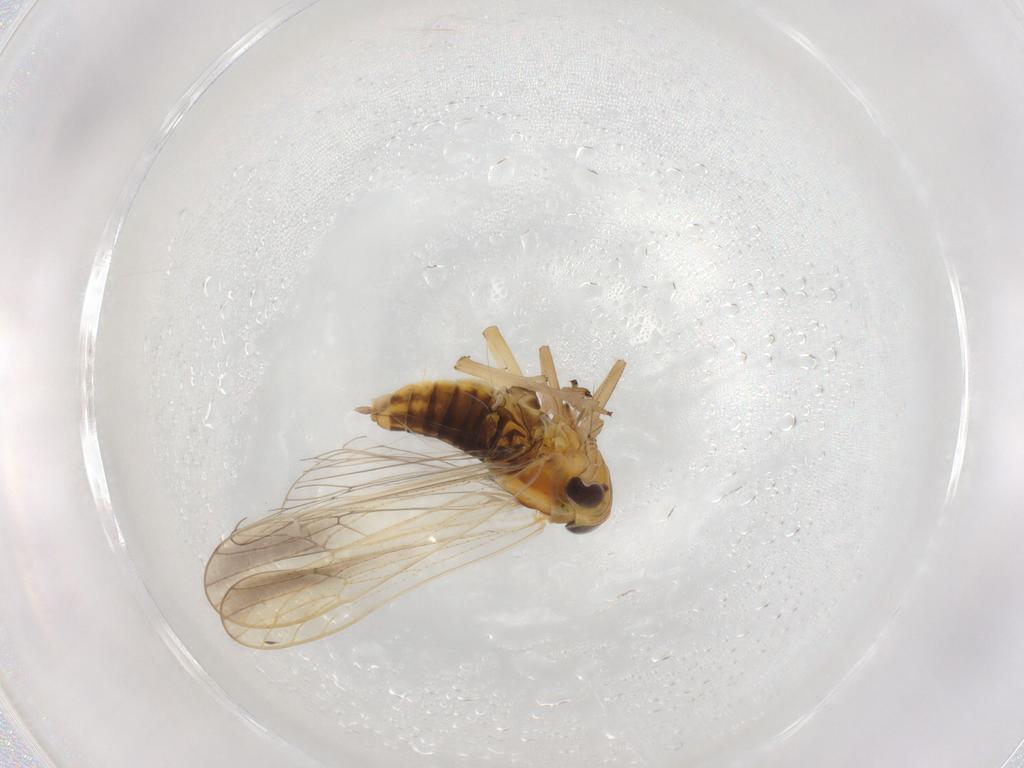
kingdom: Animalia
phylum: Arthropoda
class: Insecta
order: Hemiptera
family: Delphacidae
